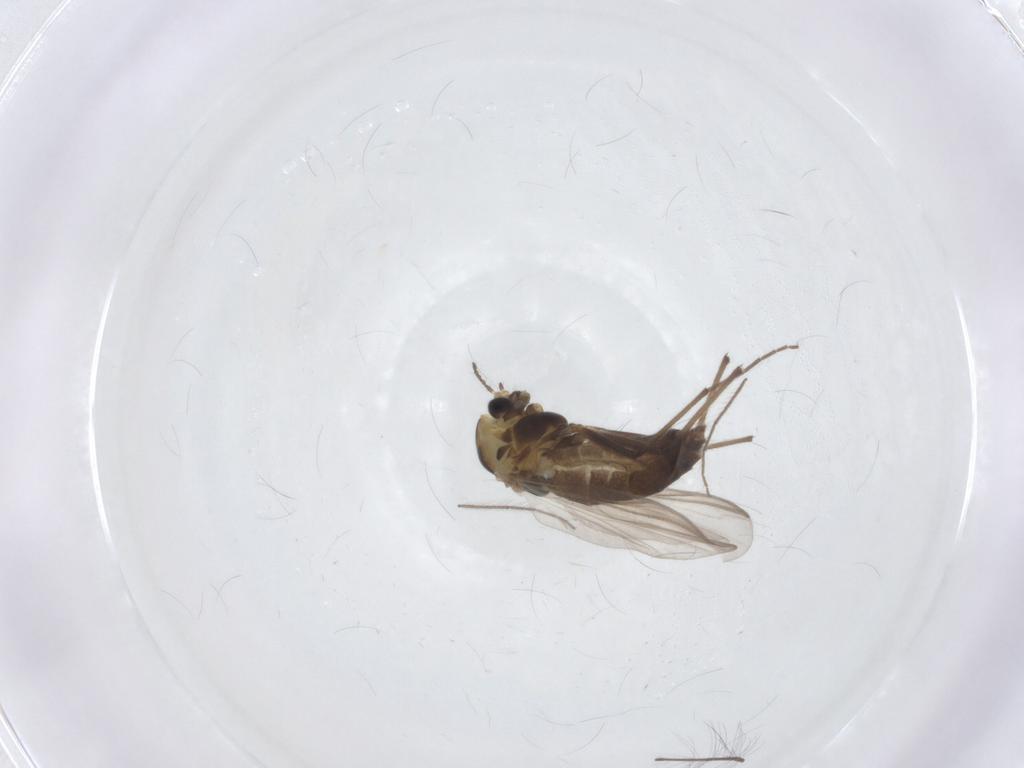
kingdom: Animalia
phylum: Arthropoda
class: Insecta
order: Diptera
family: Chironomidae
